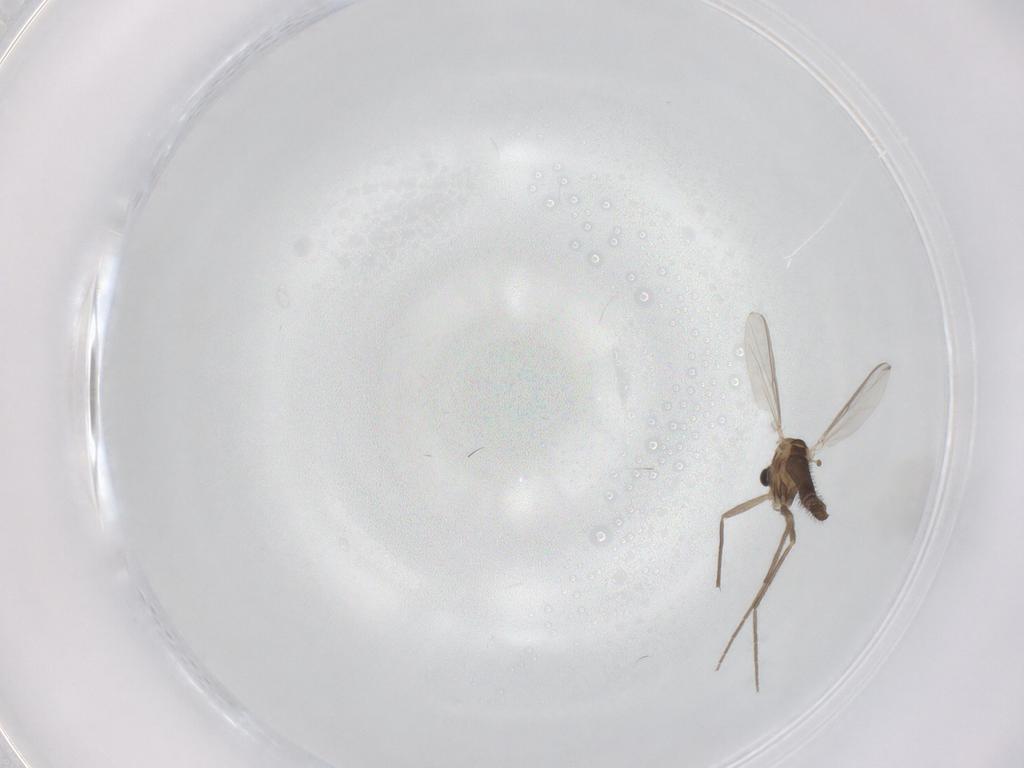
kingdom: Animalia
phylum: Arthropoda
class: Insecta
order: Diptera
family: Chironomidae
